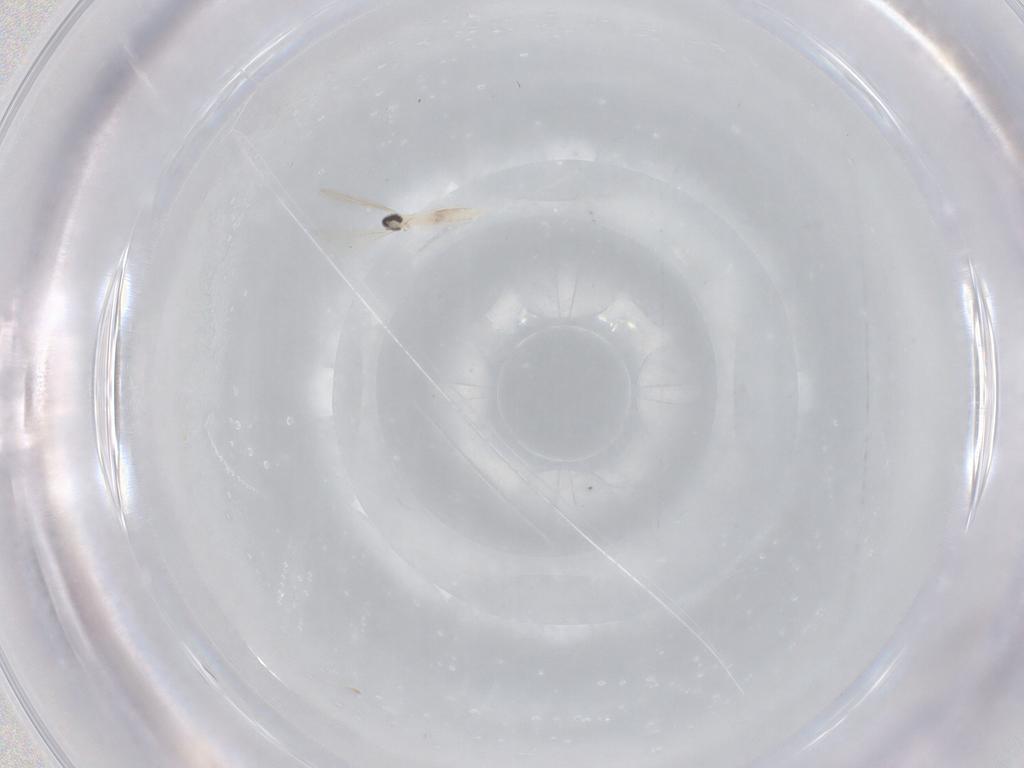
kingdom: Animalia
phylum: Arthropoda
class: Insecta
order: Diptera
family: Cecidomyiidae
